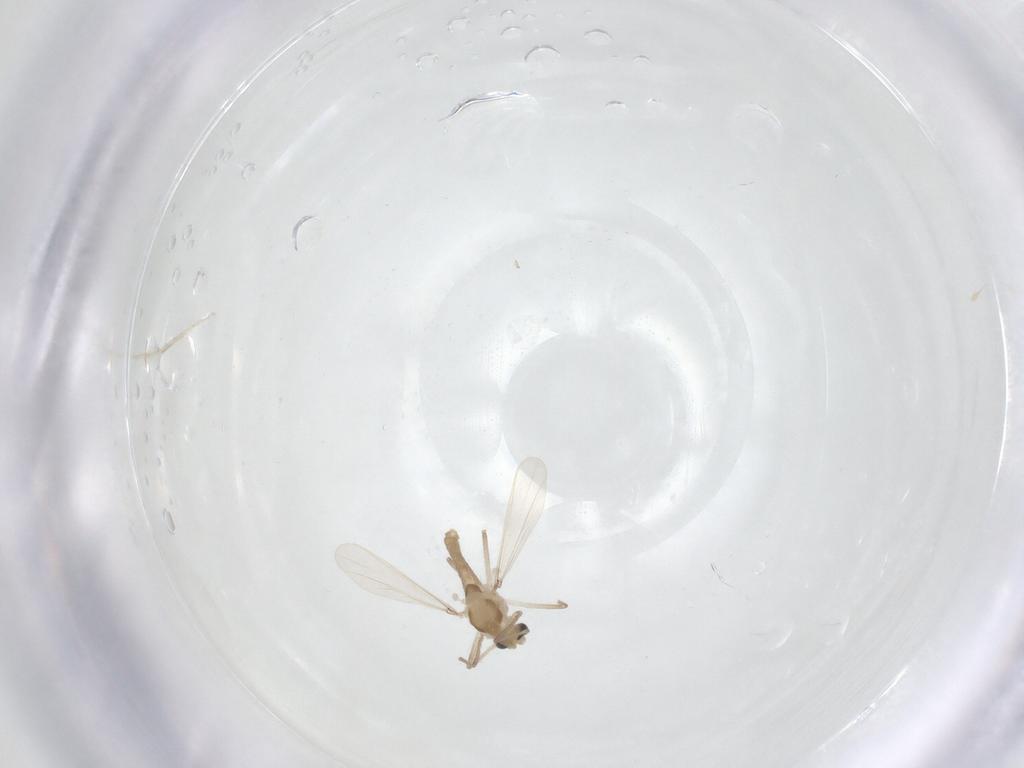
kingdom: Animalia
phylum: Arthropoda
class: Insecta
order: Diptera
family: Chironomidae
